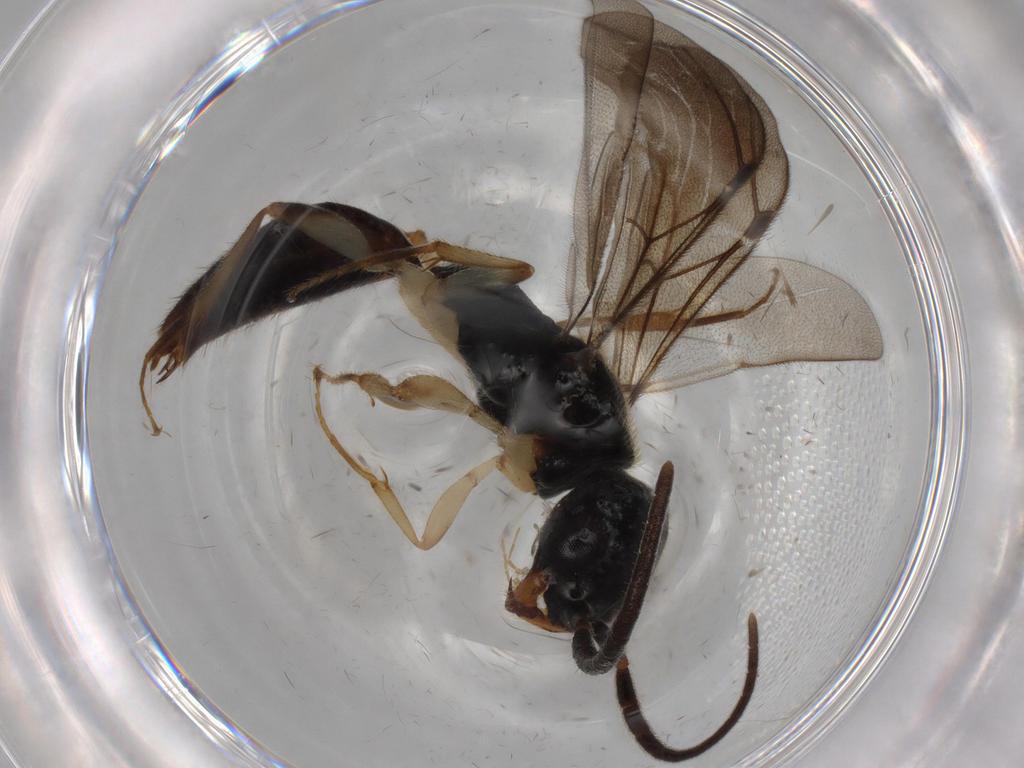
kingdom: Animalia
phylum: Arthropoda
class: Insecta
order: Hymenoptera
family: Bethylidae
